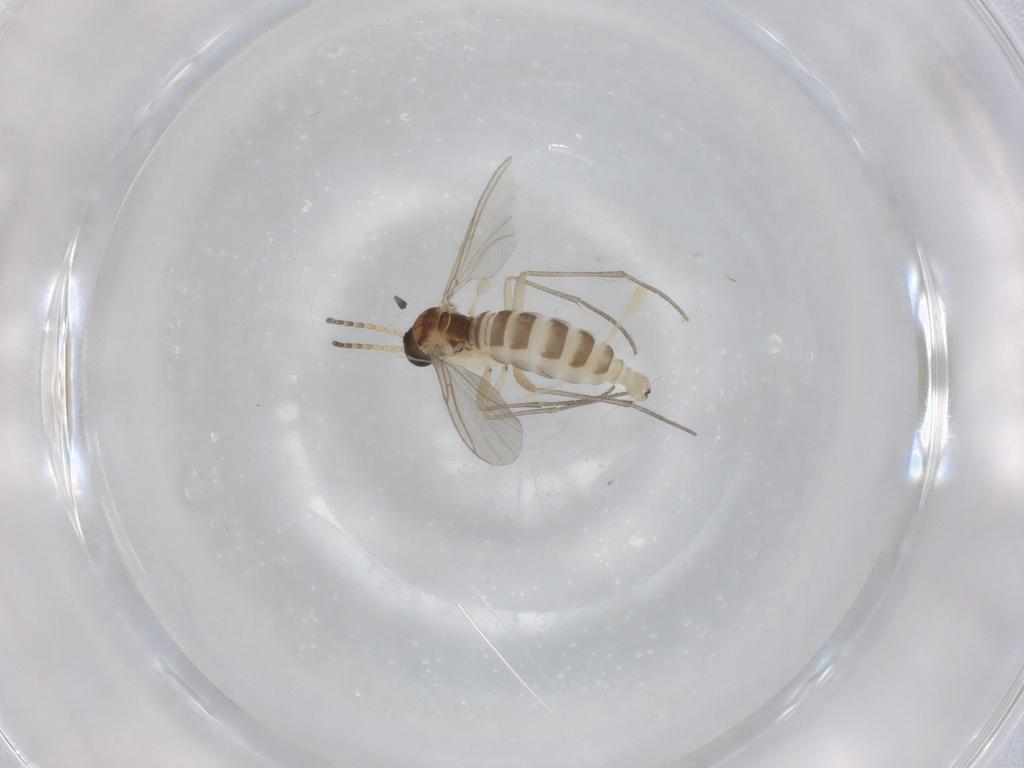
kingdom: Animalia
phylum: Arthropoda
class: Insecta
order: Diptera
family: Sciaridae
